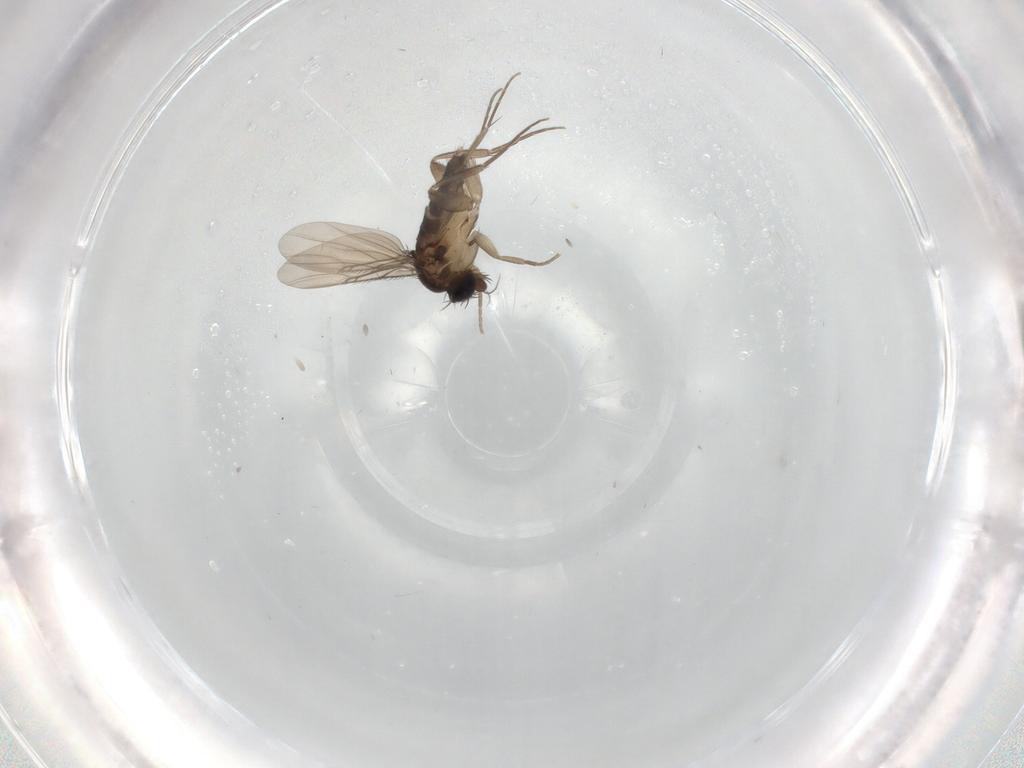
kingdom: Animalia
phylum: Arthropoda
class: Insecta
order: Diptera
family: Phoridae
